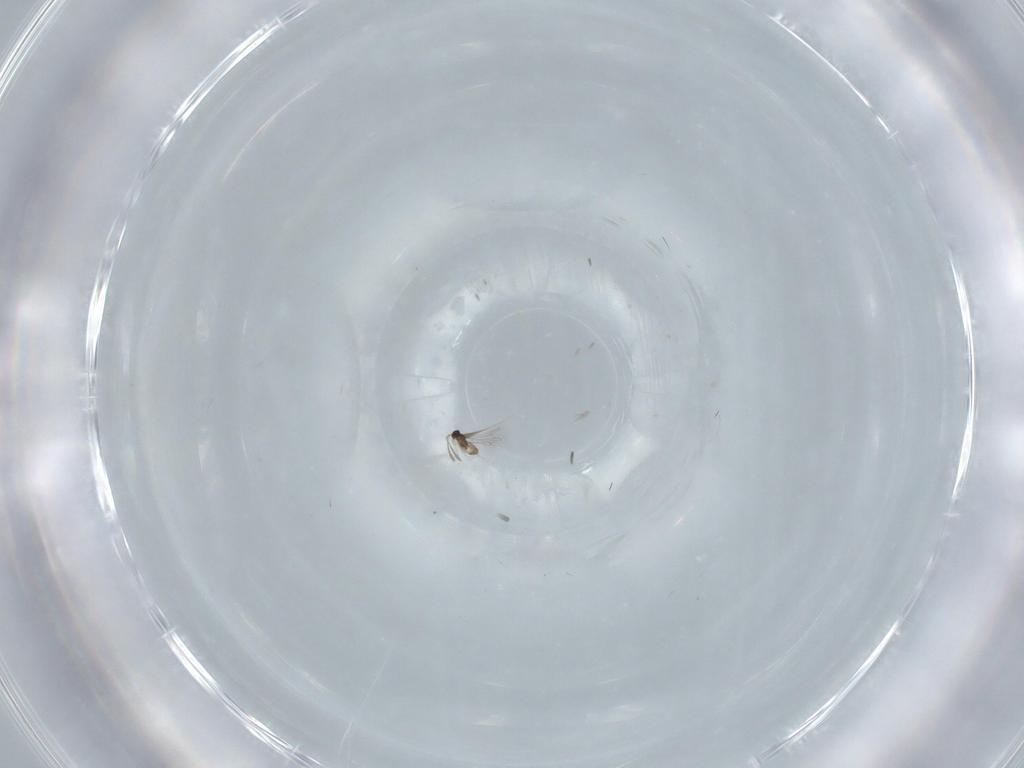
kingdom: Animalia
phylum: Arthropoda
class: Insecta
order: Hymenoptera
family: Mymaridae
